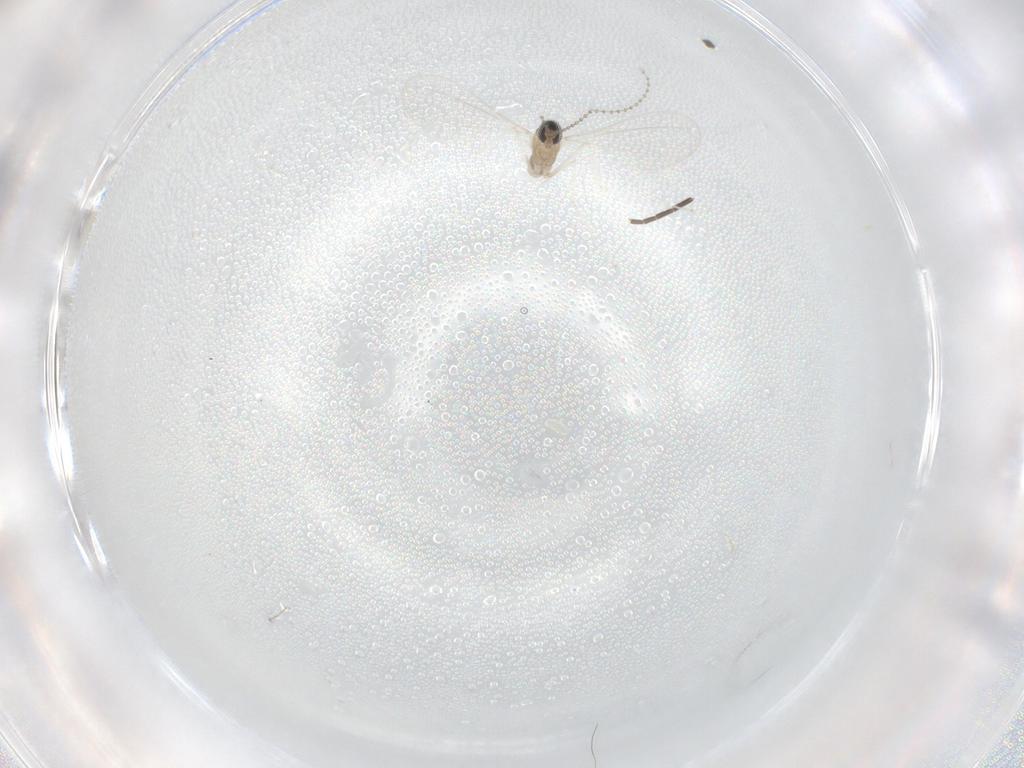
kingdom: Animalia
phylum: Arthropoda
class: Insecta
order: Diptera
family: Sciaridae
